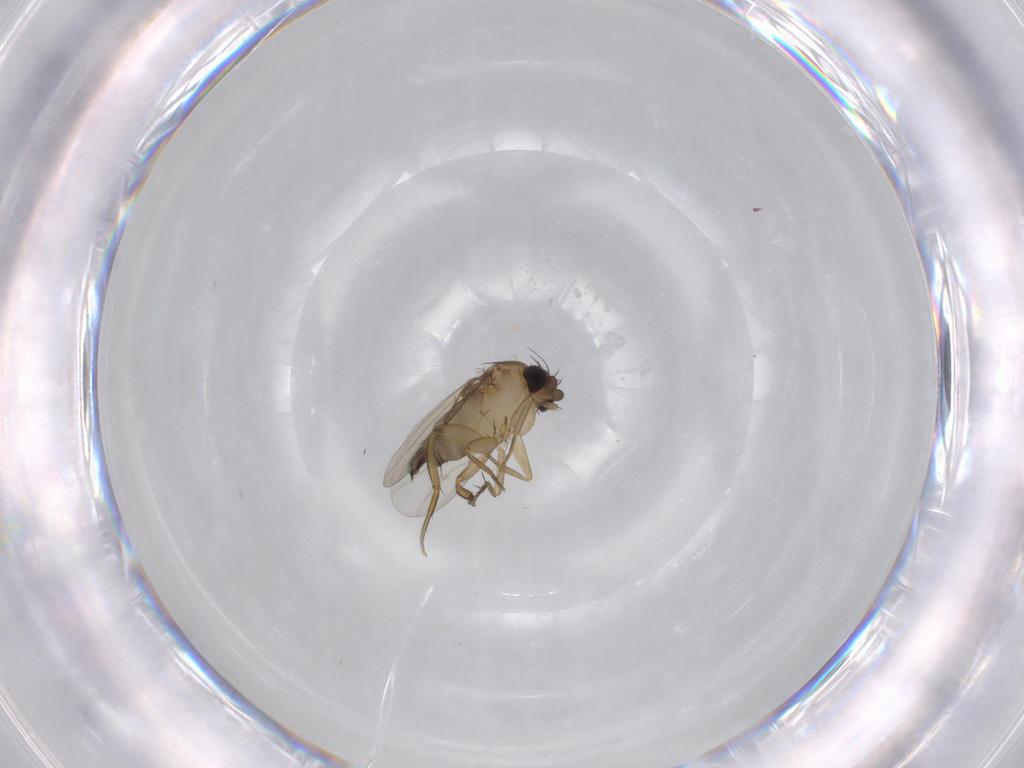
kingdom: Animalia
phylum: Arthropoda
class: Insecta
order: Diptera
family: Phoridae
